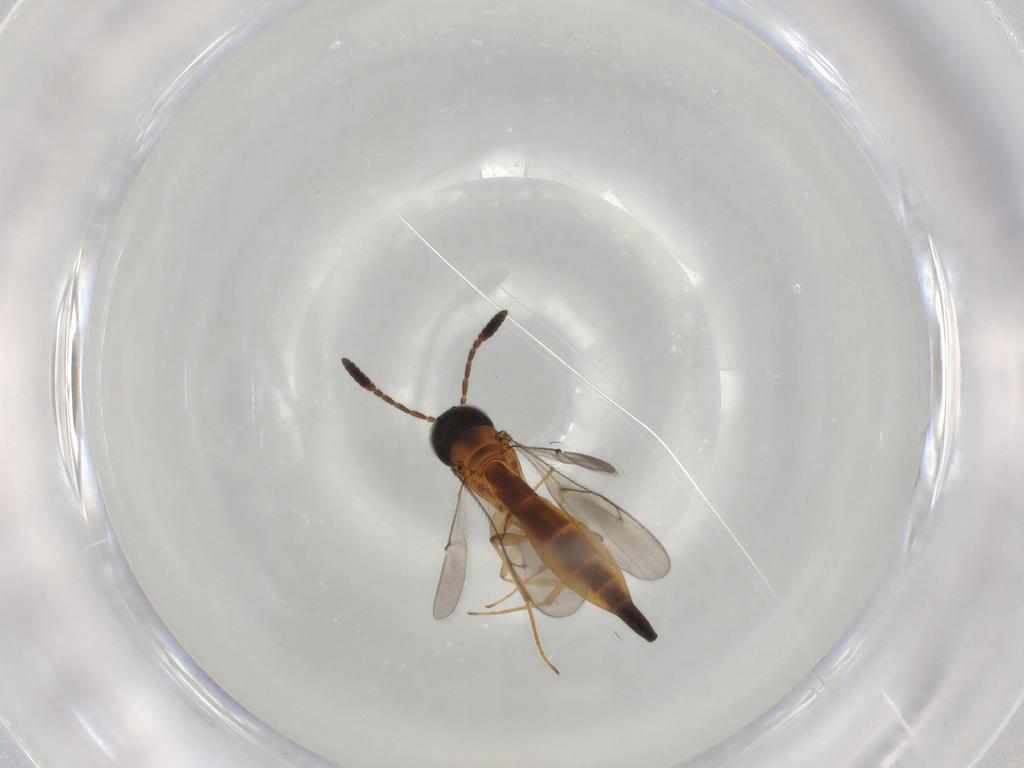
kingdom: Animalia
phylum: Arthropoda
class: Insecta
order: Hymenoptera
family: Scelionidae
